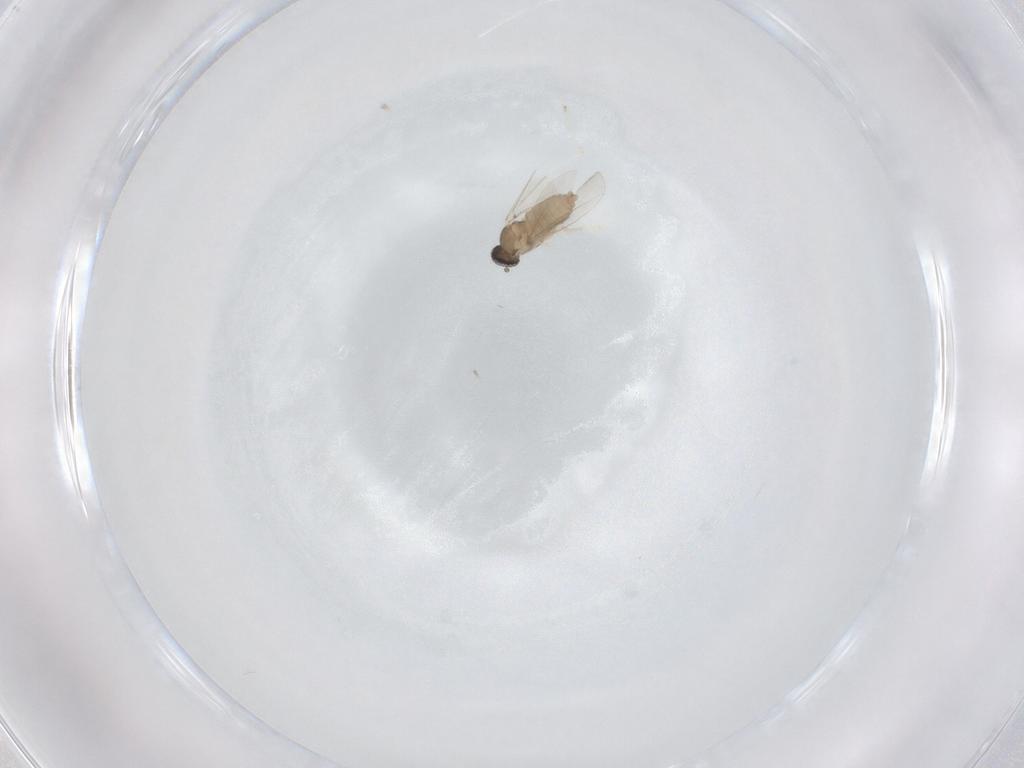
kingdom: Animalia
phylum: Arthropoda
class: Insecta
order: Diptera
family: Cecidomyiidae
